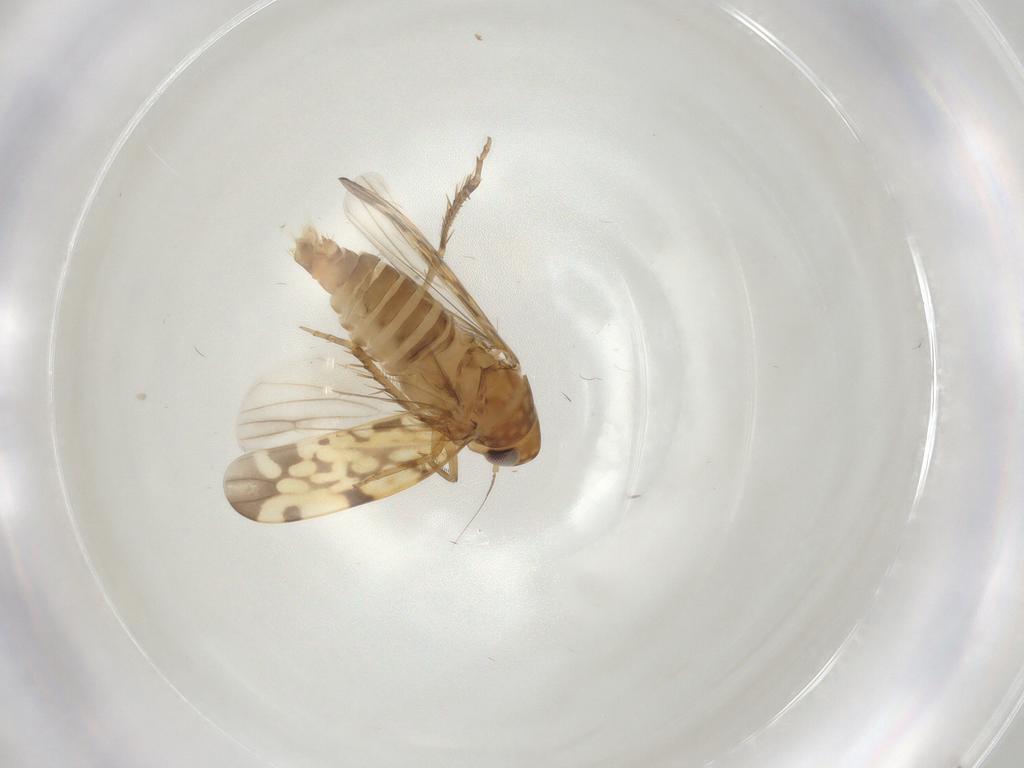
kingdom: Animalia
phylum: Arthropoda
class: Insecta
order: Hemiptera
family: Cicadellidae
